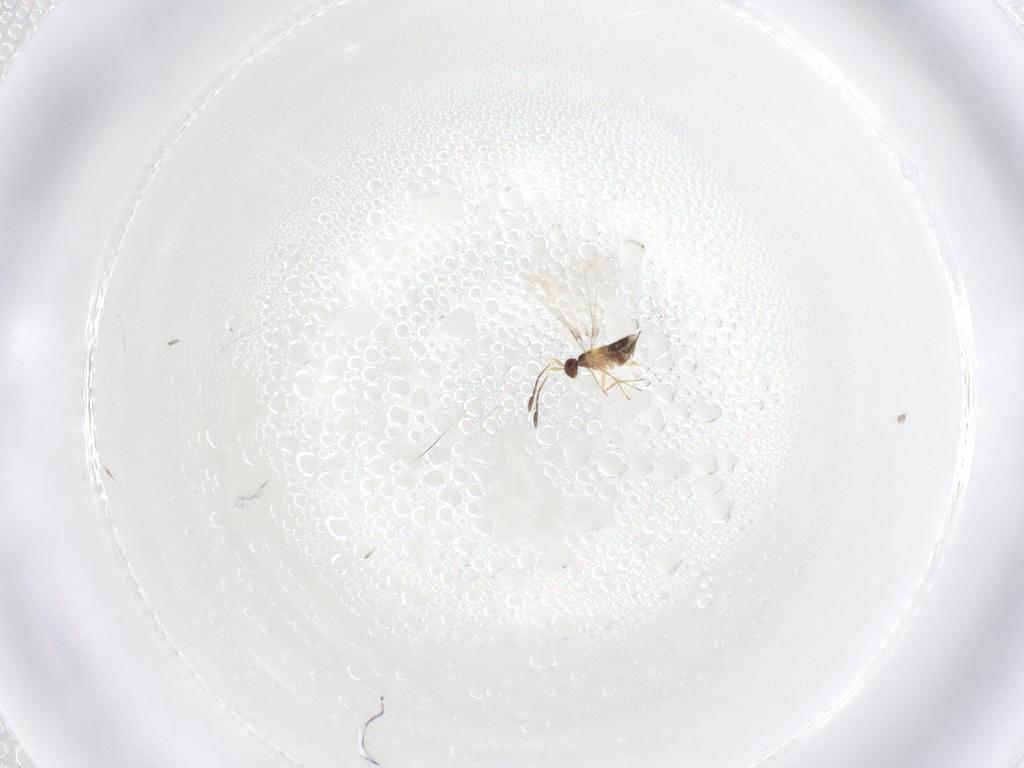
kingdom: Animalia
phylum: Arthropoda
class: Insecta
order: Hymenoptera
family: Mymaridae
